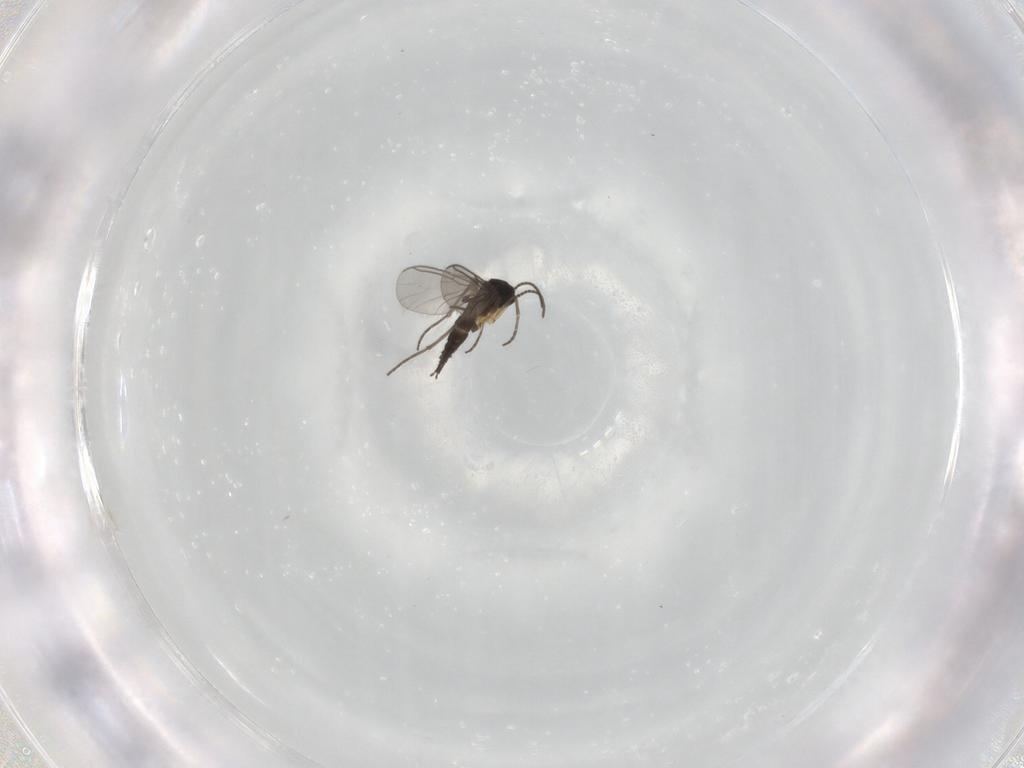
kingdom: Animalia
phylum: Arthropoda
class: Insecta
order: Diptera
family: Sciaridae
